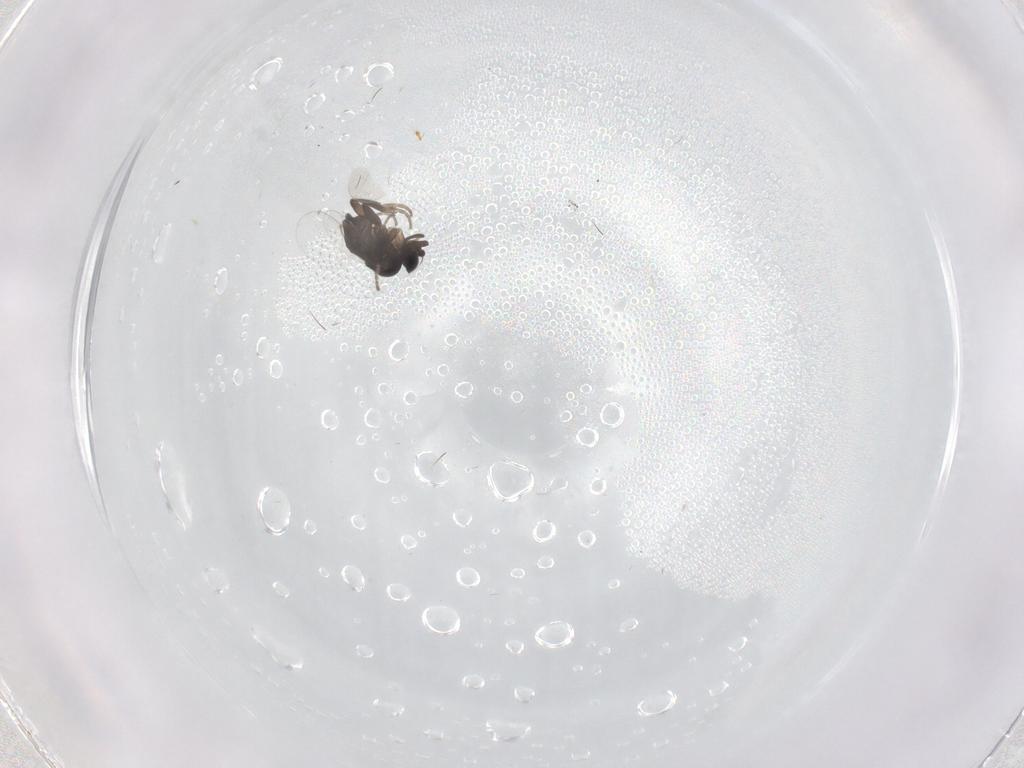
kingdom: Animalia
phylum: Arthropoda
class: Insecta
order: Diptera
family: Phoridae
